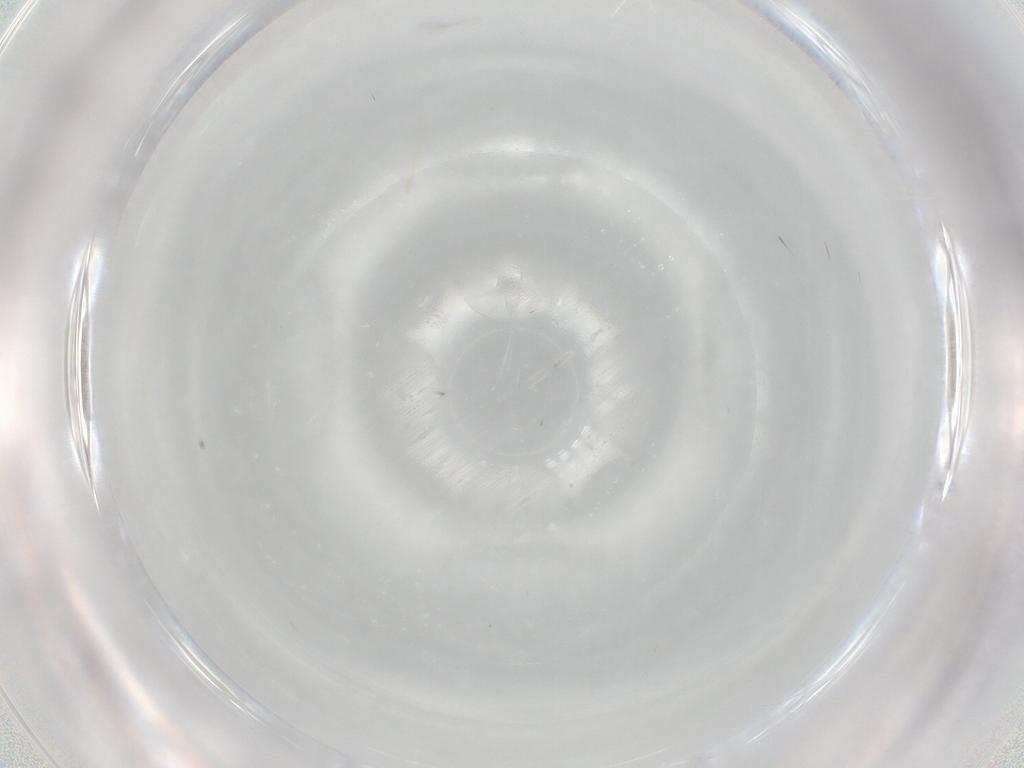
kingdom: Animalia
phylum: Arthropoda
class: Insecta
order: Diptera
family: Cecidomyiidae
